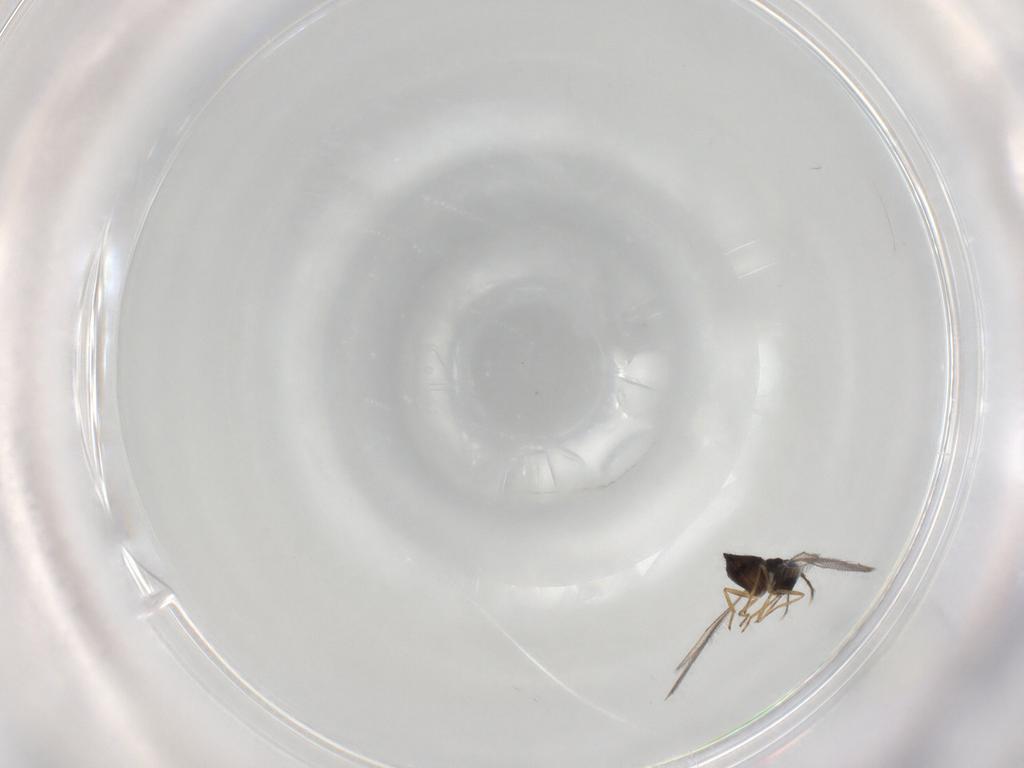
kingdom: Animalia
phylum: Arthropoda
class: Insecta
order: Hymenoptera
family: Eulophidae
